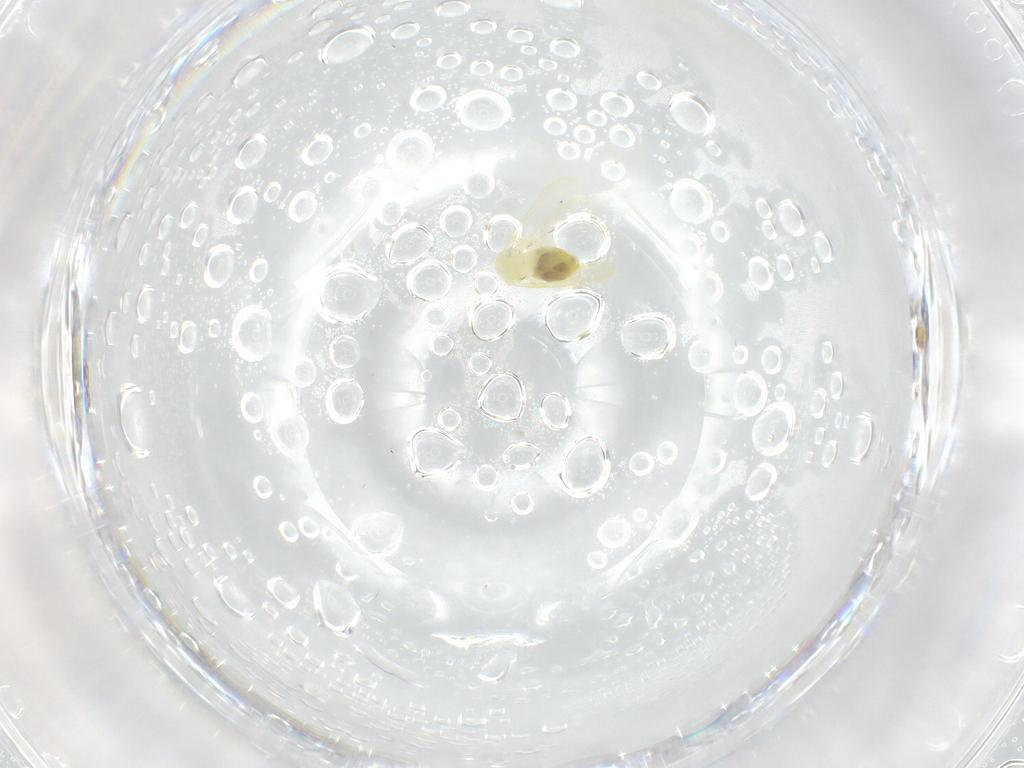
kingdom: Animalia
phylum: Arthropoda
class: Insecta
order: Hemiptera
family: Aleyrodidae
